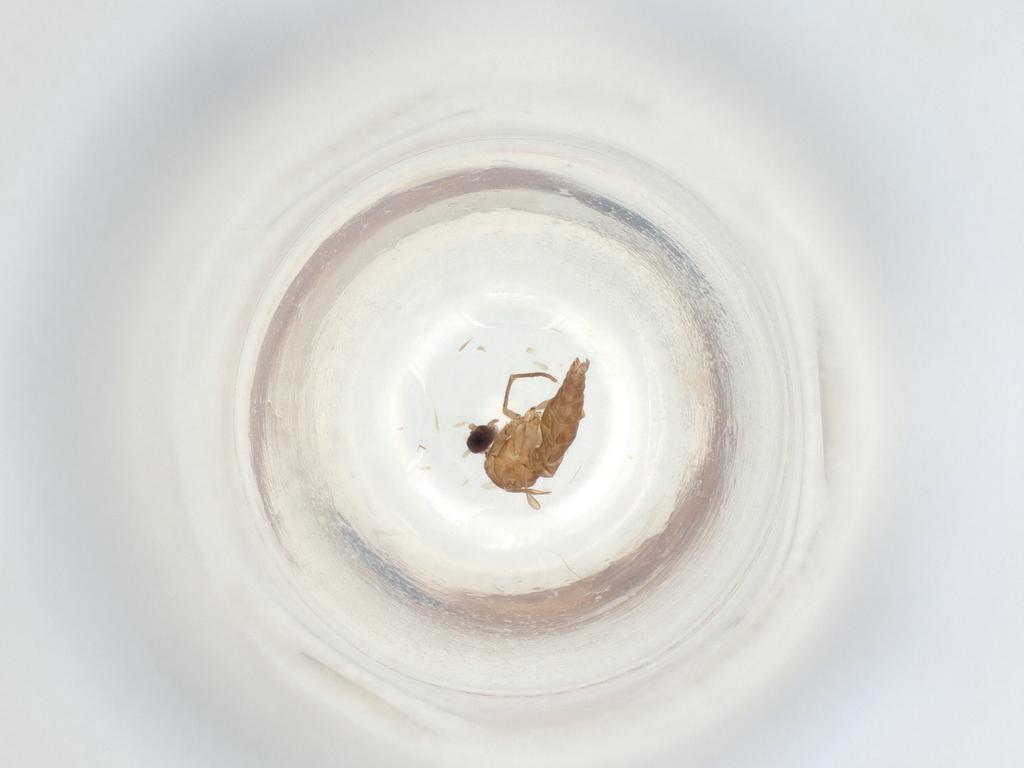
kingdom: Animalia
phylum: Arthropoda
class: Insecta
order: Diptera
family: Sciaridae
